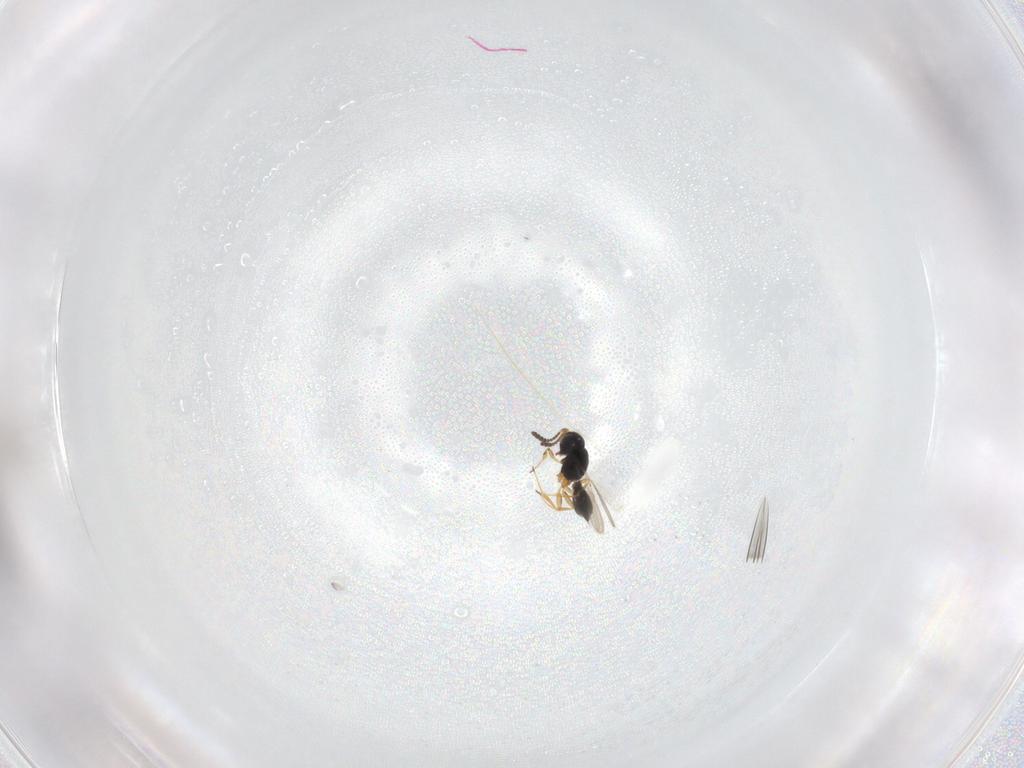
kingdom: Animalia
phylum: Arthropoda
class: Insecta
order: Hymenoptera
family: Scelionidae
